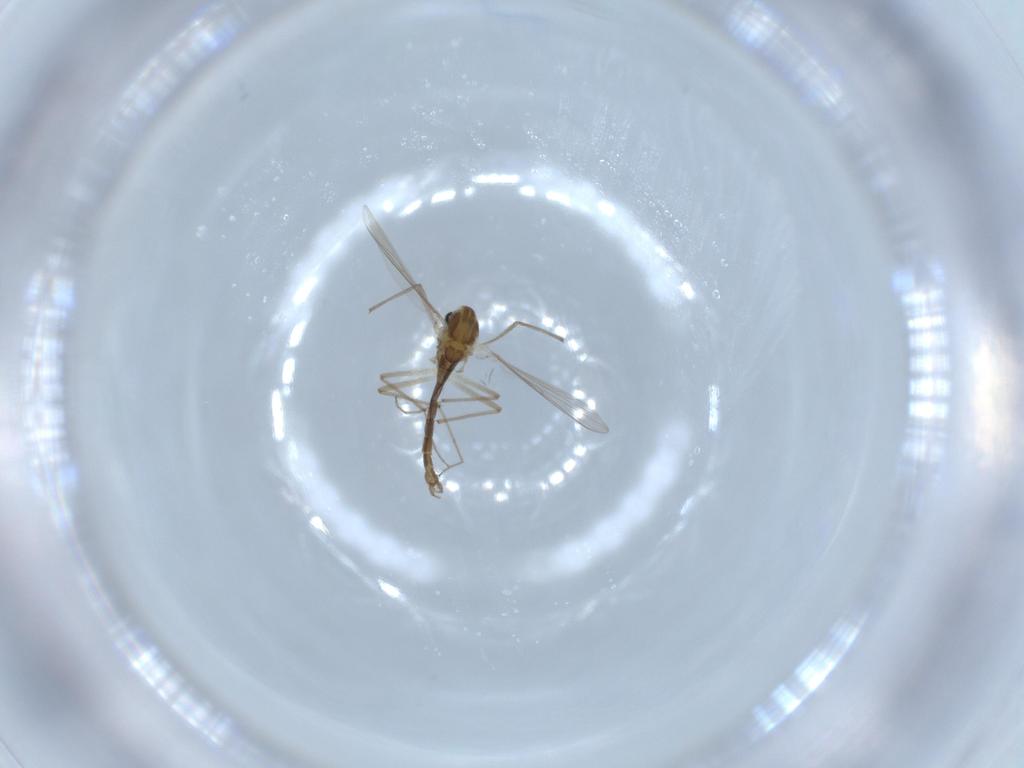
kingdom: Animalia
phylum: Arthropoda
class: Insecta
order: Diptera
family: Chironomidae
